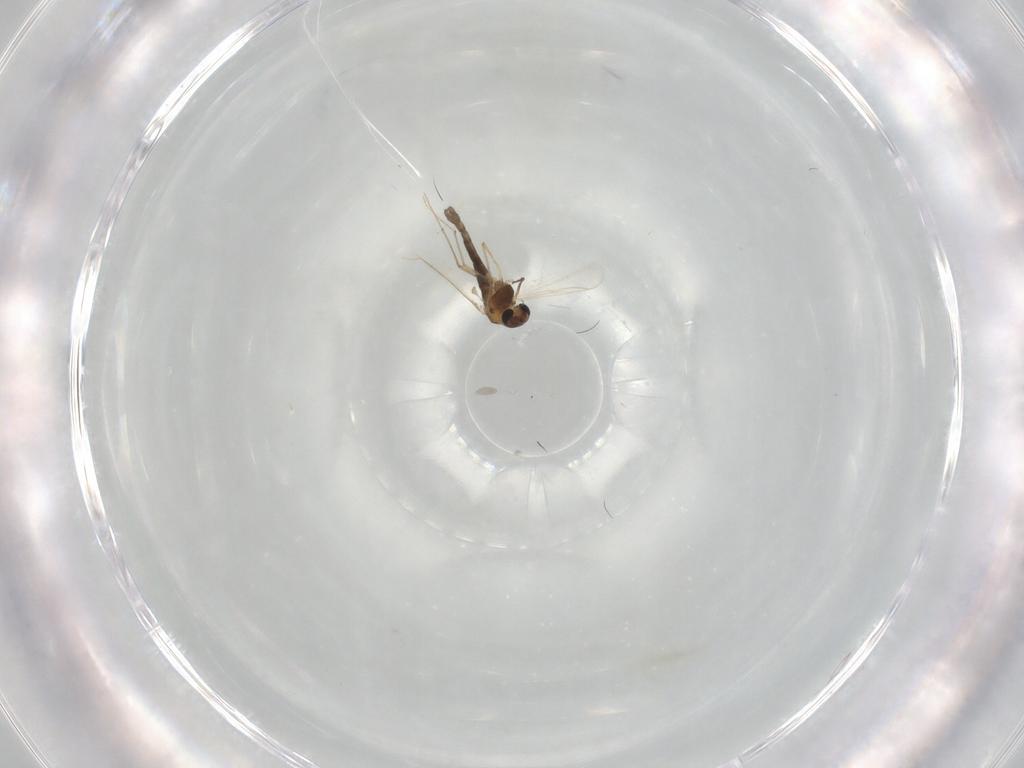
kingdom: Animalia
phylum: Arthropoda
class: Insecta
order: Diptera
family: Chironomidae
